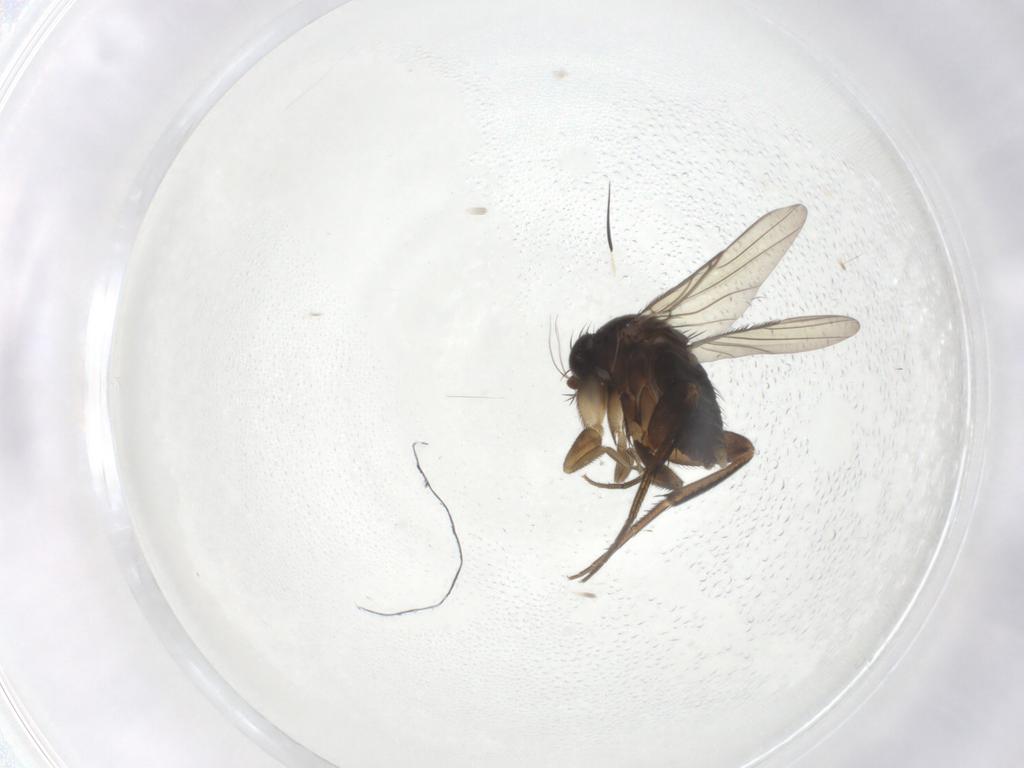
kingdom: Animalia
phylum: Arthropoda
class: Insecta
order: Diptera
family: Phoridae
